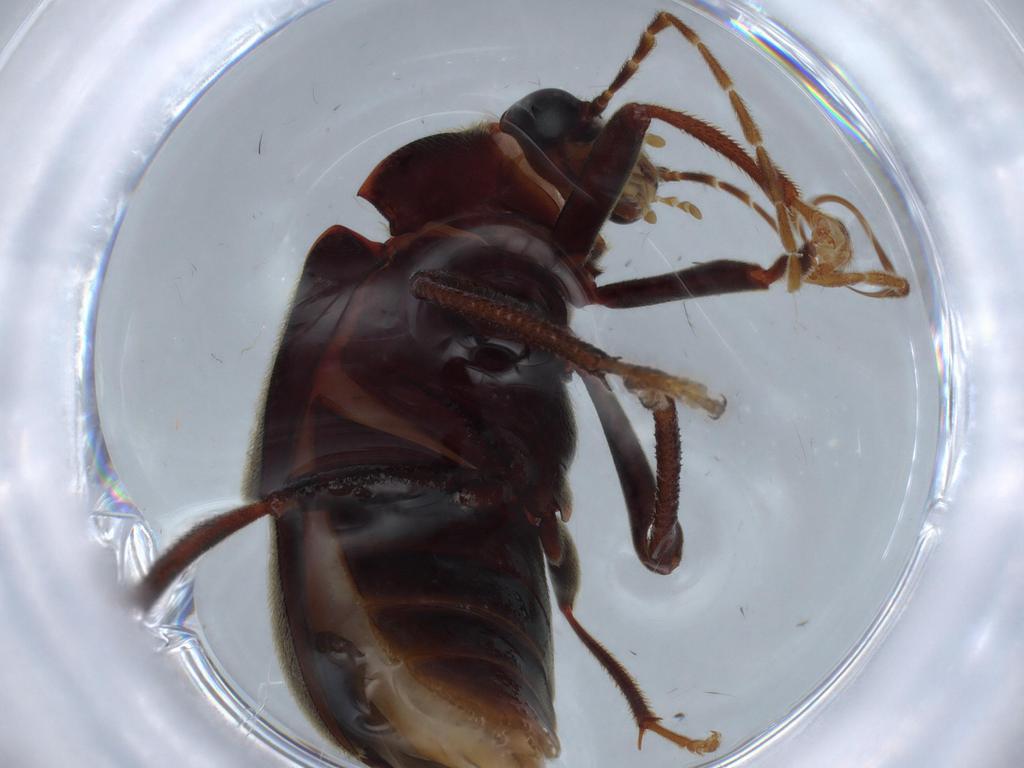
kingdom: Animalia
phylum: Arthropoda
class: Insecta
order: Coleoptera
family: Ptilodactylidae
